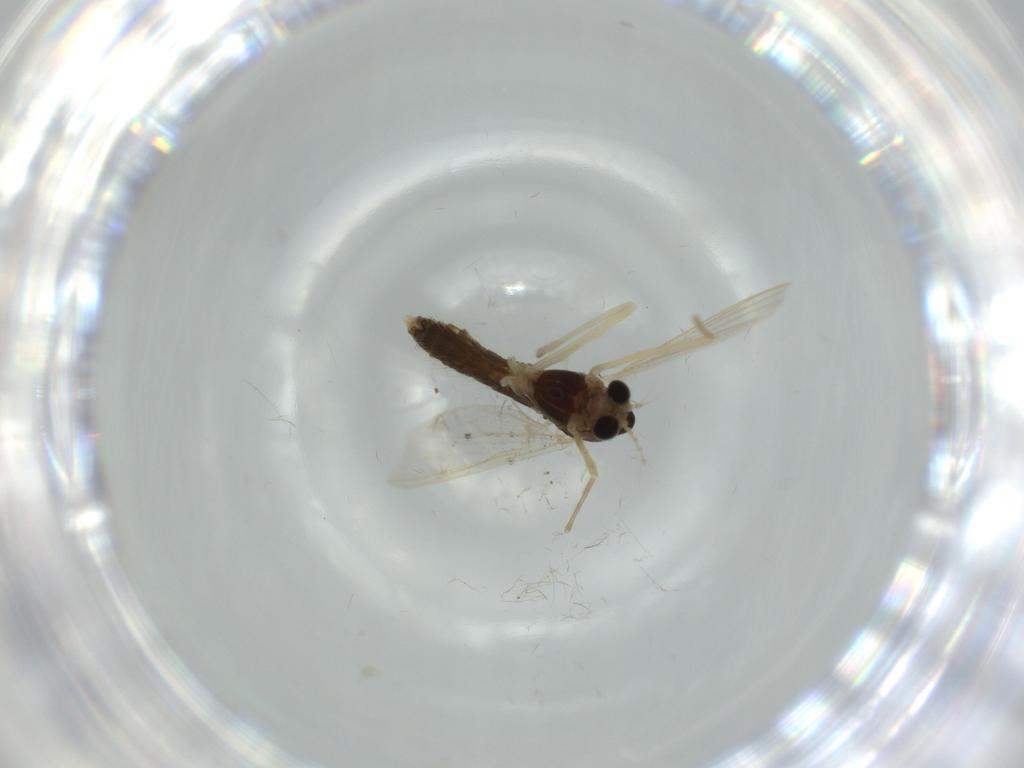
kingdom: Animalia
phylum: Arthropoda
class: Insecta
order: Diptera
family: Chironomidae
